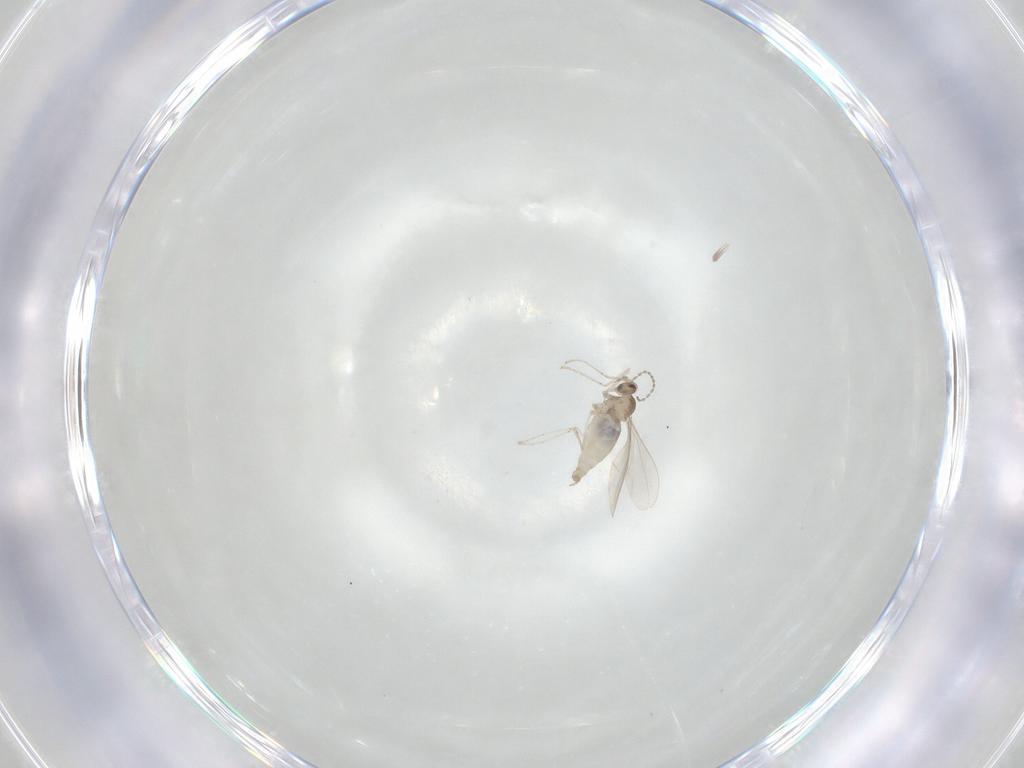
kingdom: Animalia
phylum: Arthropoda
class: Insecta
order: Diptera
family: Cecidomyiidae
